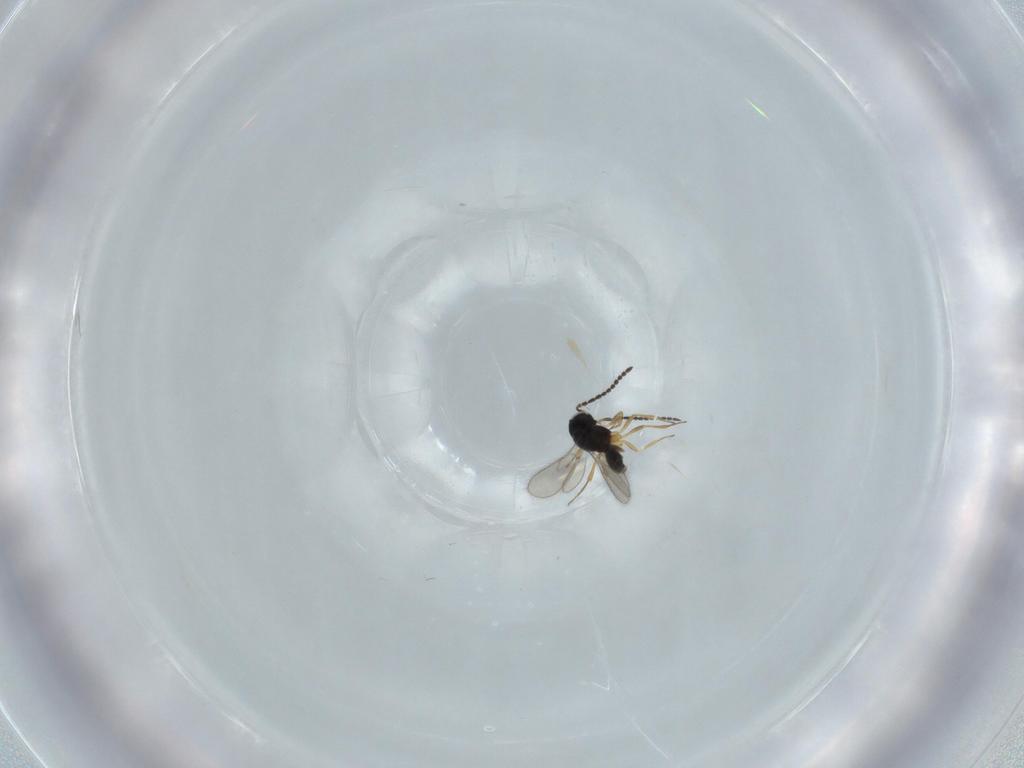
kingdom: Animalia
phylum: Arthropoda
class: Insecta
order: Hymenoptera
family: Scelionidae
